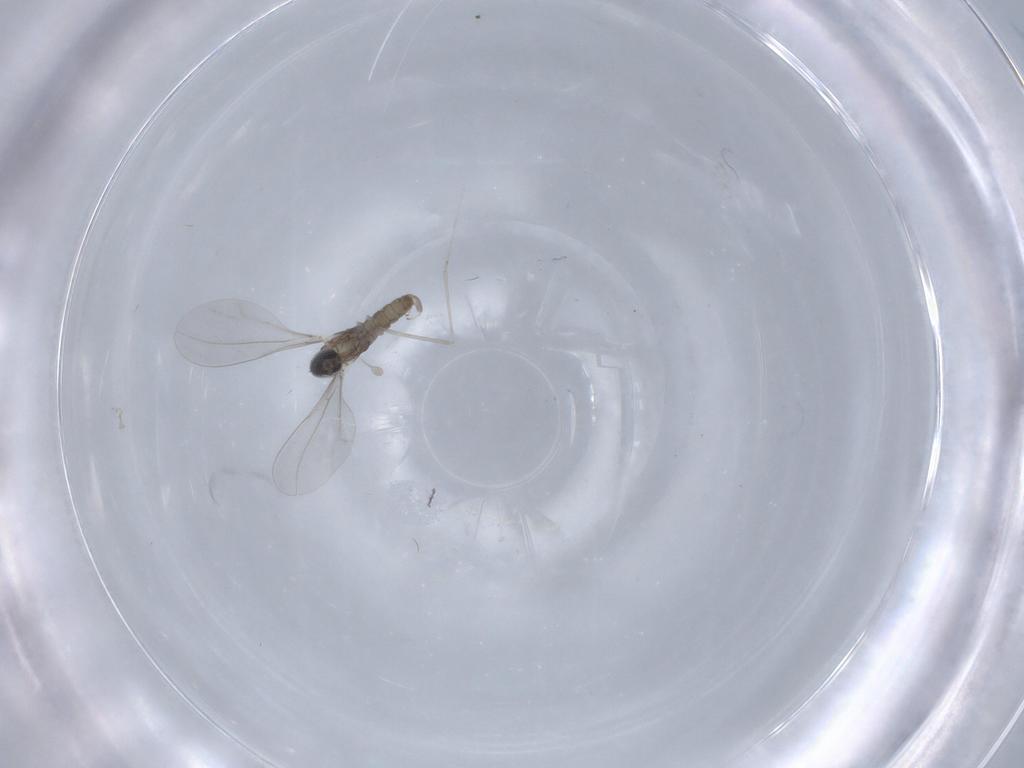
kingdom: Animalia
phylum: Arthropoda
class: Insecta
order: Diptera
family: Cecidomyiidae
